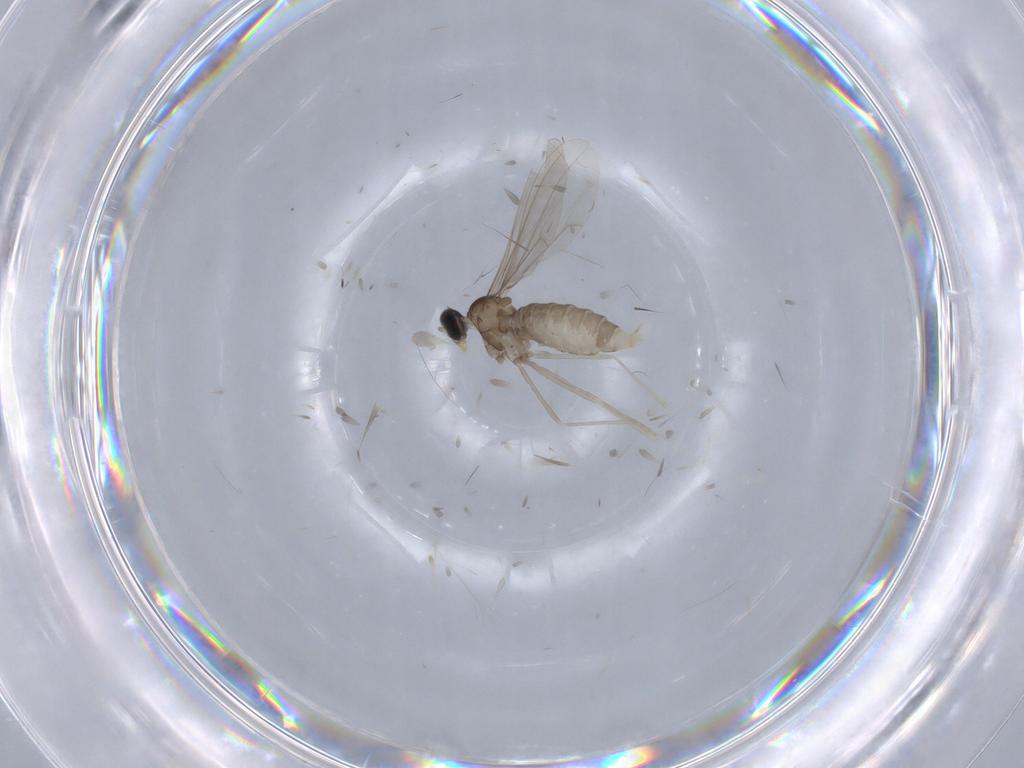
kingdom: Animalia
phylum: Arthropoda
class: Insecta
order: Diptera
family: Cecidomyiidae
